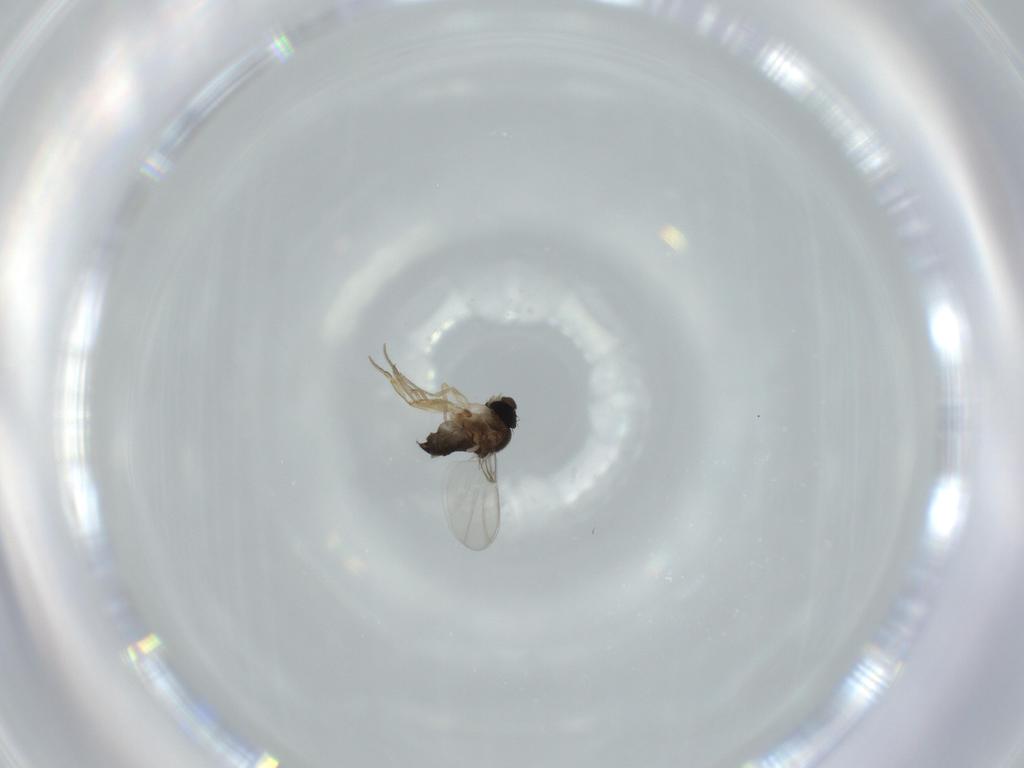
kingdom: Animalia
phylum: Arthropoda
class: Insecta
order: Diptera
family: Phoridae
